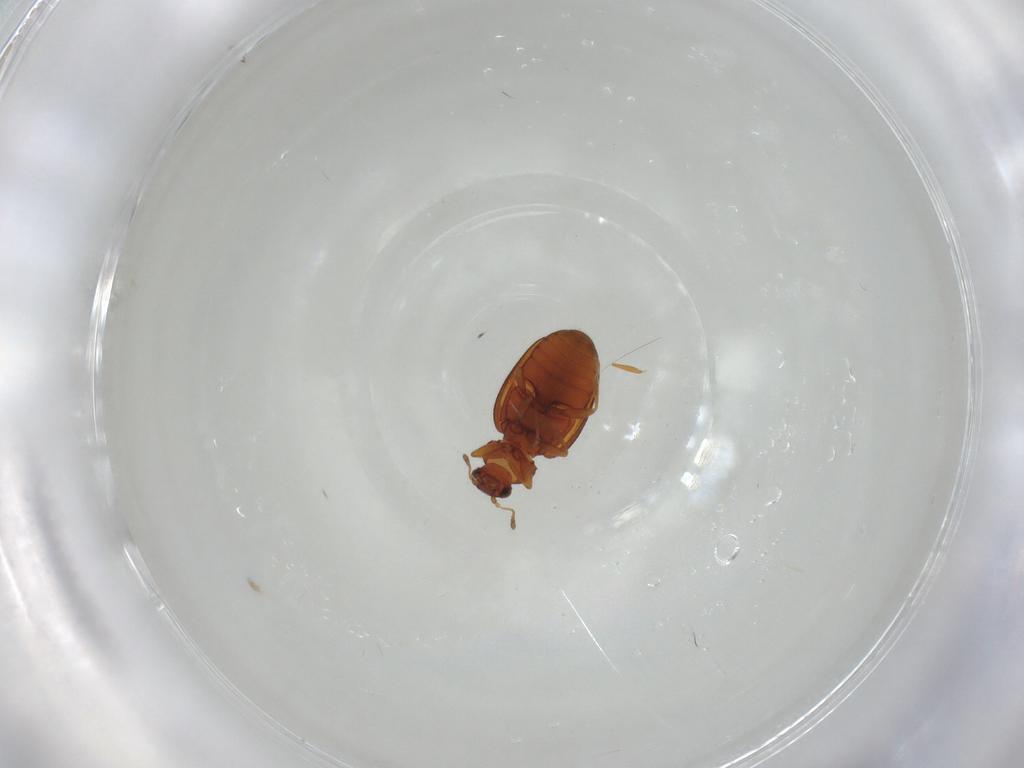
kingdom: Animalia
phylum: Arthropoda
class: Insecta
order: Coleoptera
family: Latridiidae
